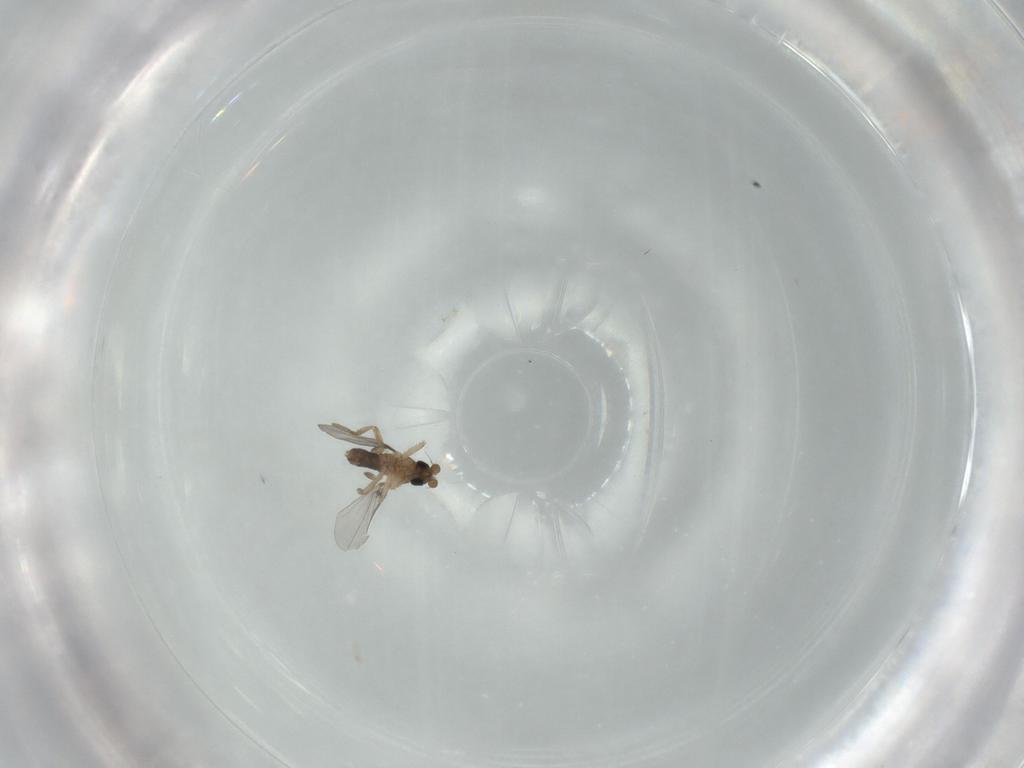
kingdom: Animalia
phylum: Arthropoda
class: Insecta
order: Diptera
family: Phoridae
